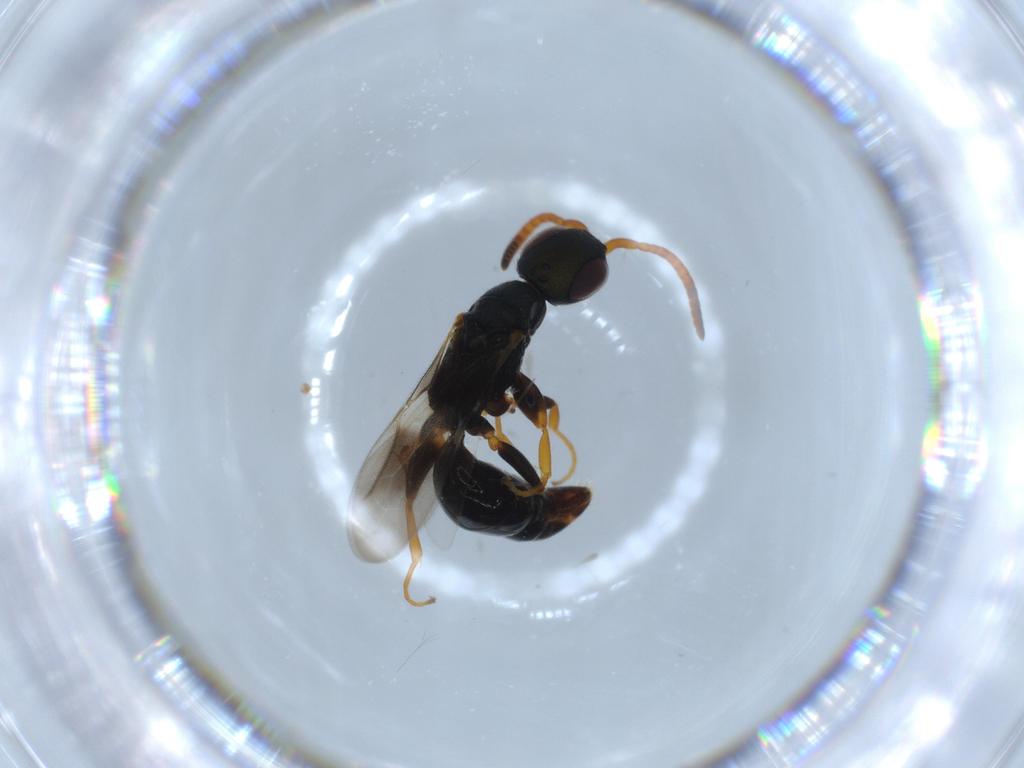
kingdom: Animalia
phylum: Arthropoda
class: Insecta
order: Hymenoptera
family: Bethylidae
